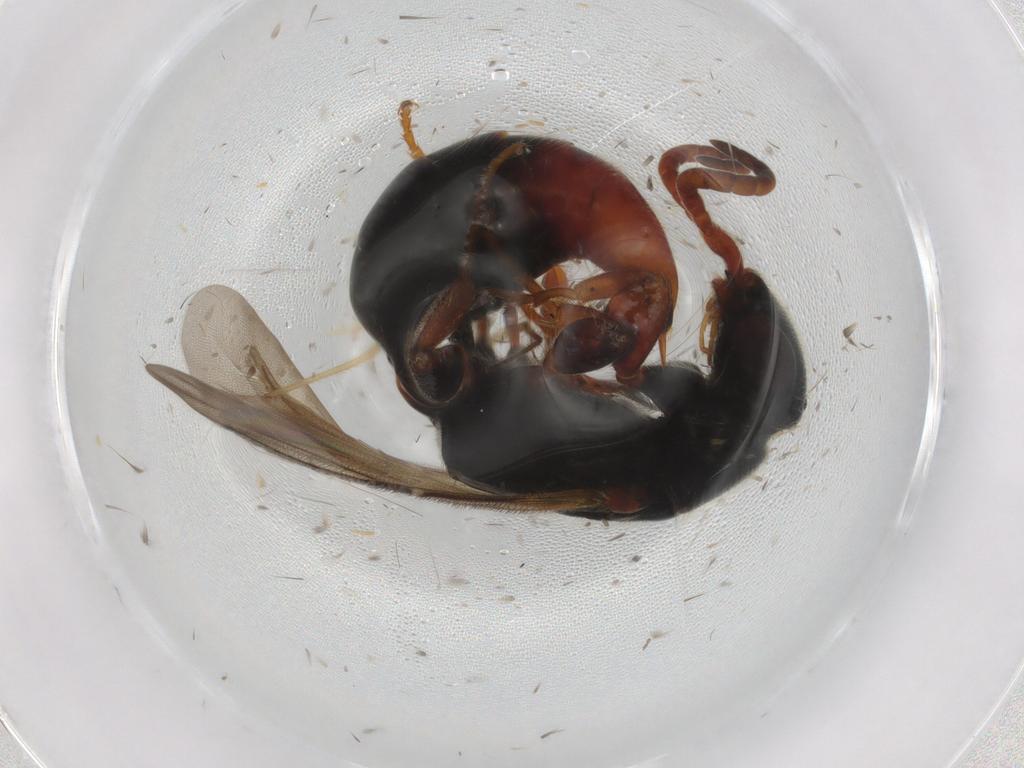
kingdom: Animalia
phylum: Arthropoda
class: Insecta
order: Hymenoptera
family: Bethylidae
